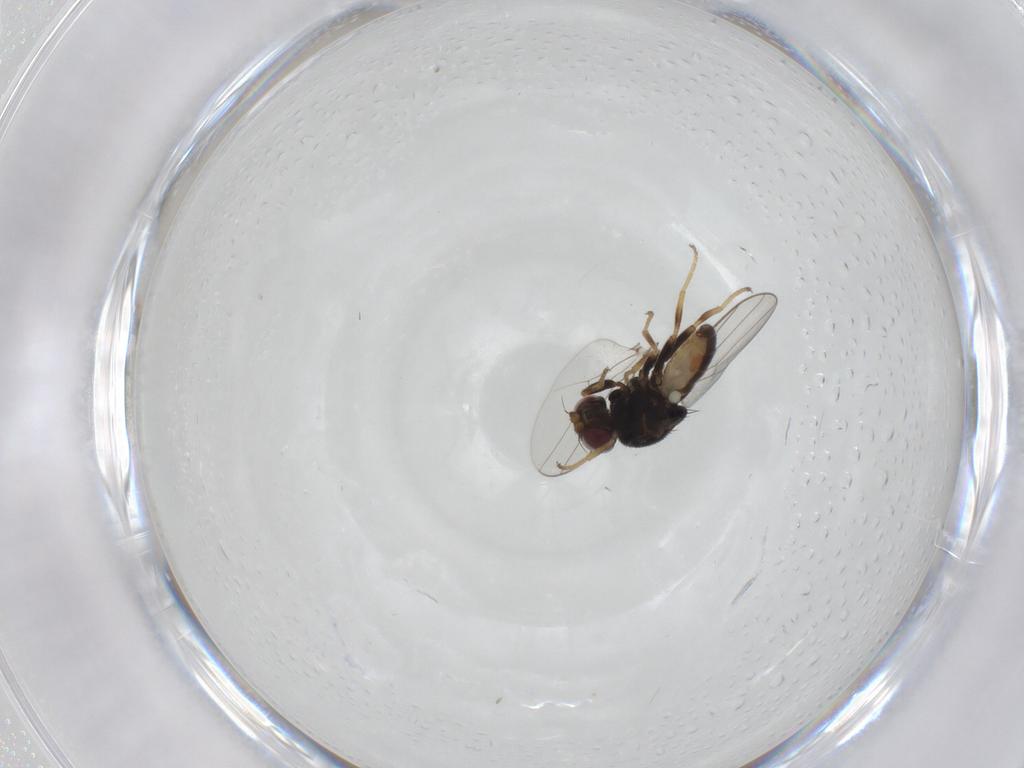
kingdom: Animalia
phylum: Arthropoda
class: Insecta
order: Diptera
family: Chloropidae
